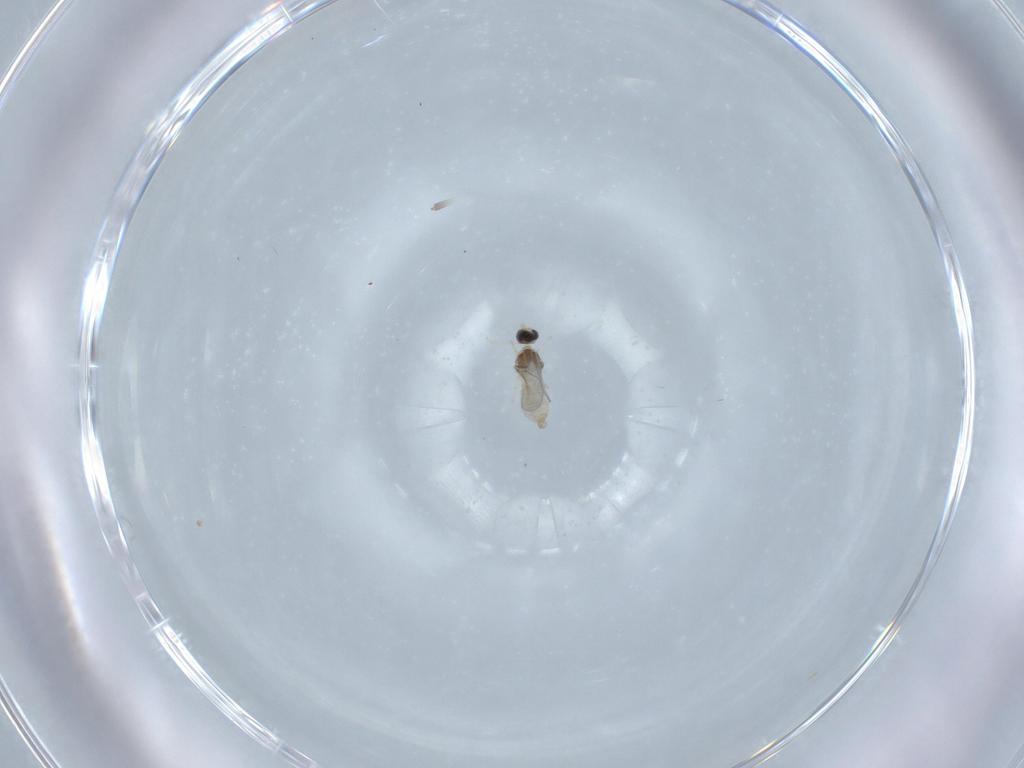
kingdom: Animalia
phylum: Arthropoda
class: Insecta
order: Diptera
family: Cecidomyiidae
